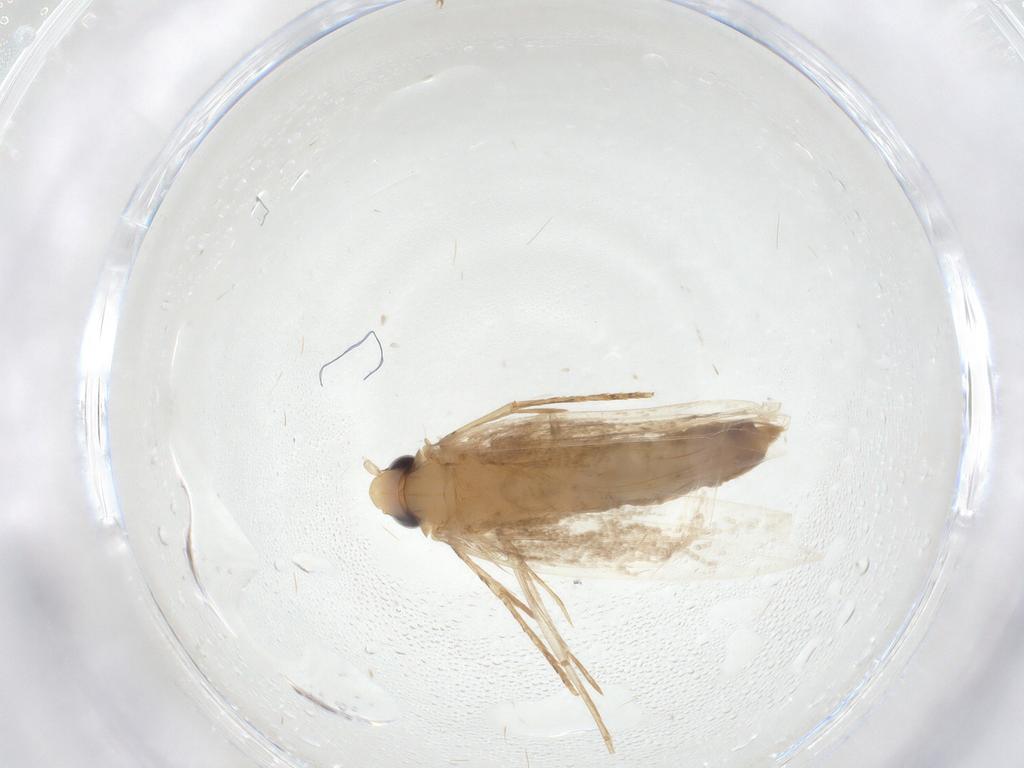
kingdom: Animalia
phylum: Arthropoda
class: Insecta
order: Lepidoptera
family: Tineidae
